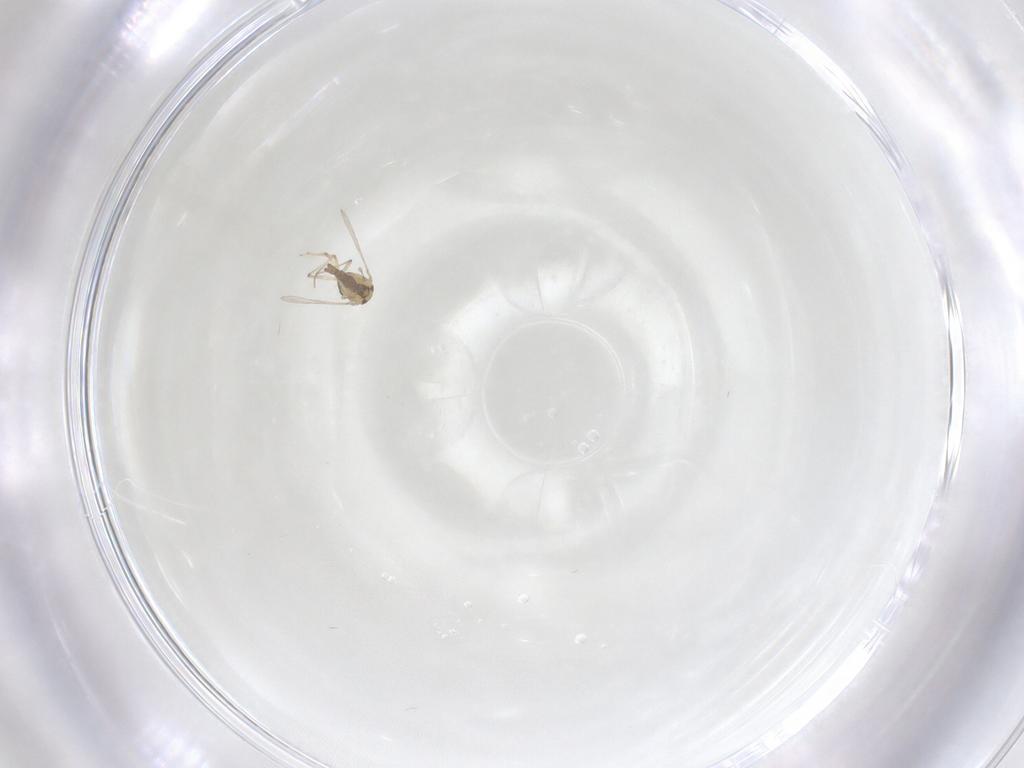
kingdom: Animalia
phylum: Arthropoda
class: Insecta
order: Diptera
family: Chironomidae
